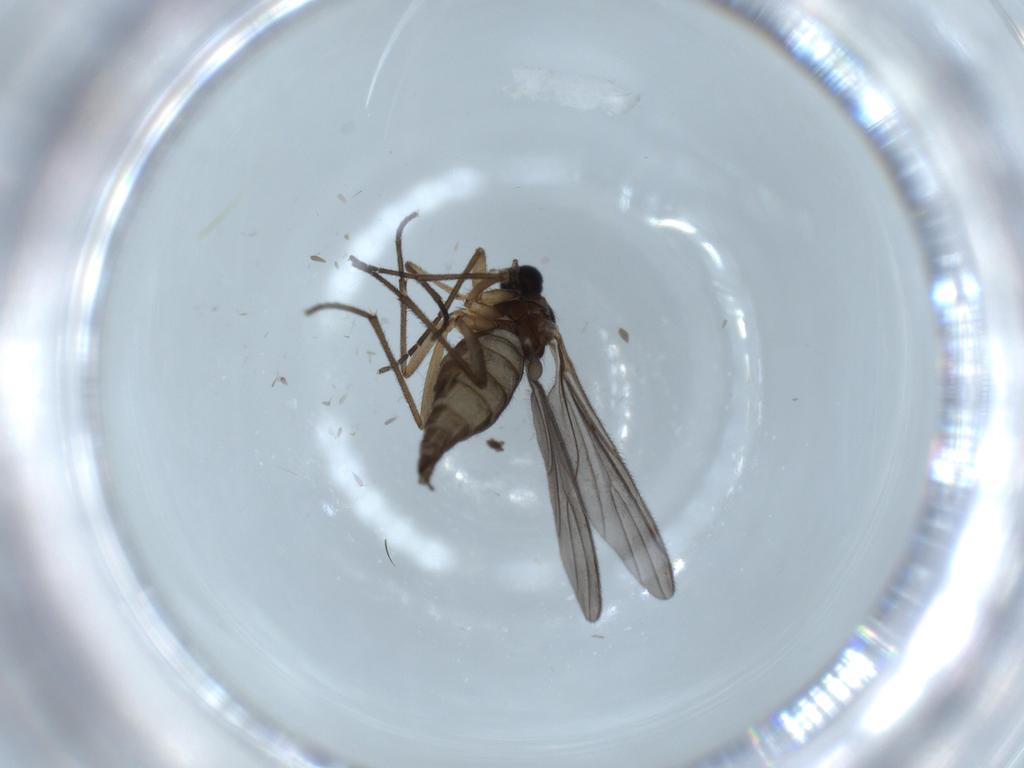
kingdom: Animalia
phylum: Arthropoda
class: Insecta
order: Diptera
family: Sciaridae
